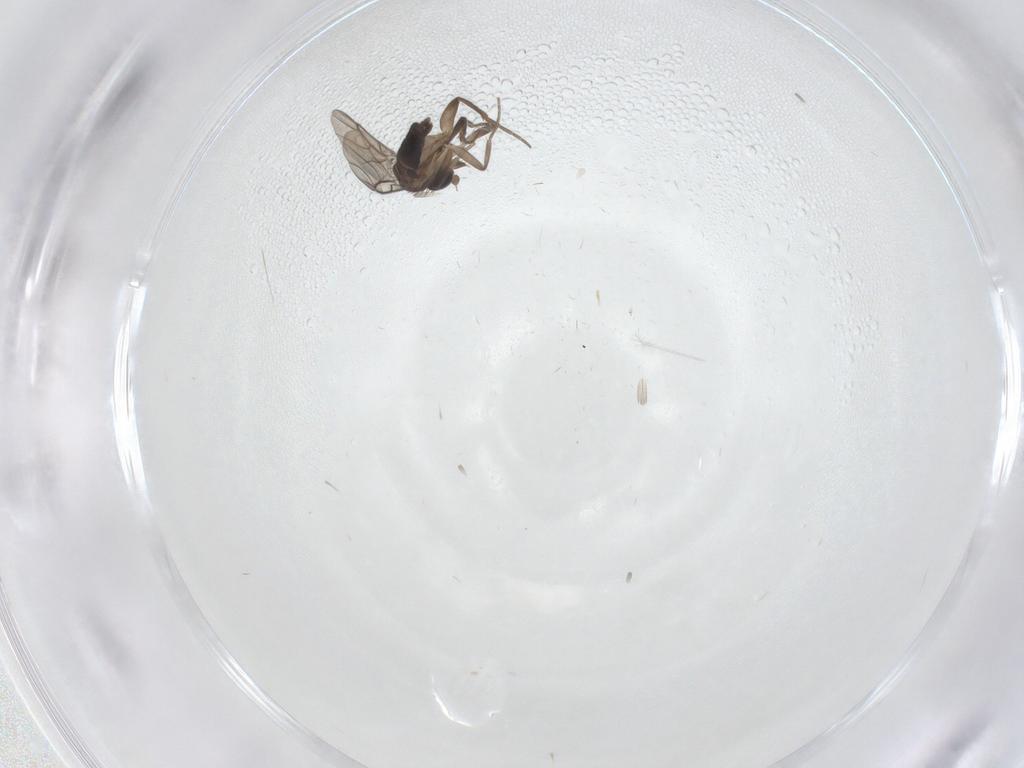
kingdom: Animalia
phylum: Arthropoda
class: Insecta
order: Diptera
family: Phoridae
